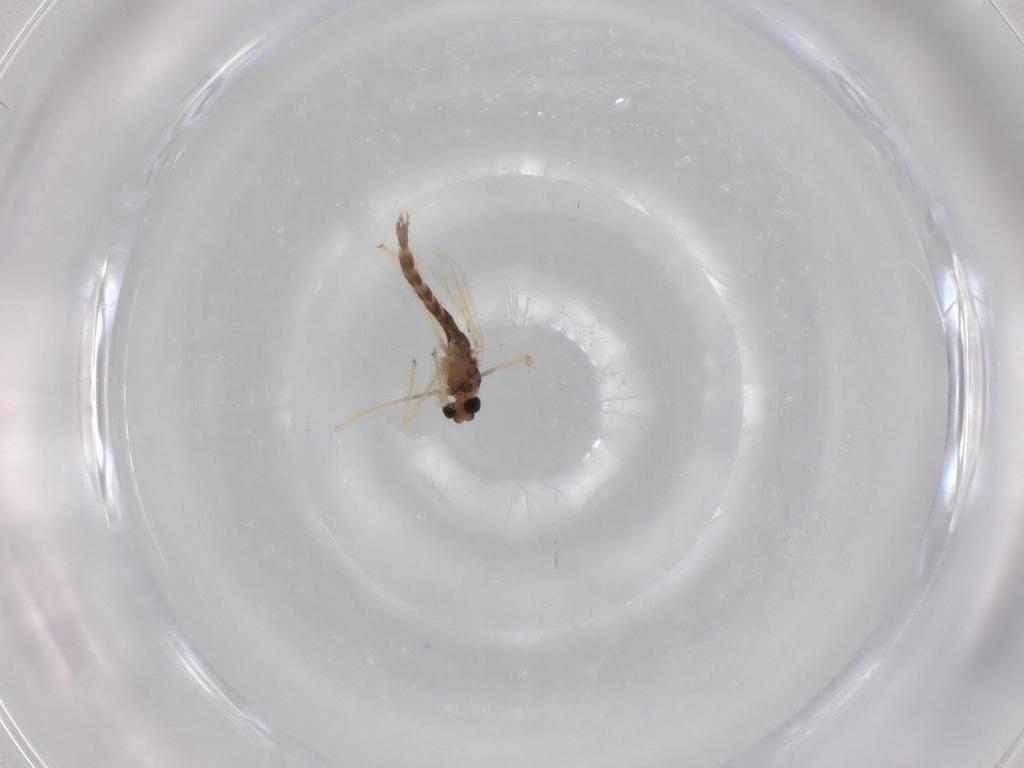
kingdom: Animalia
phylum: Arthropoda
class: Insecta
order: Diptera
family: Chironomidae
